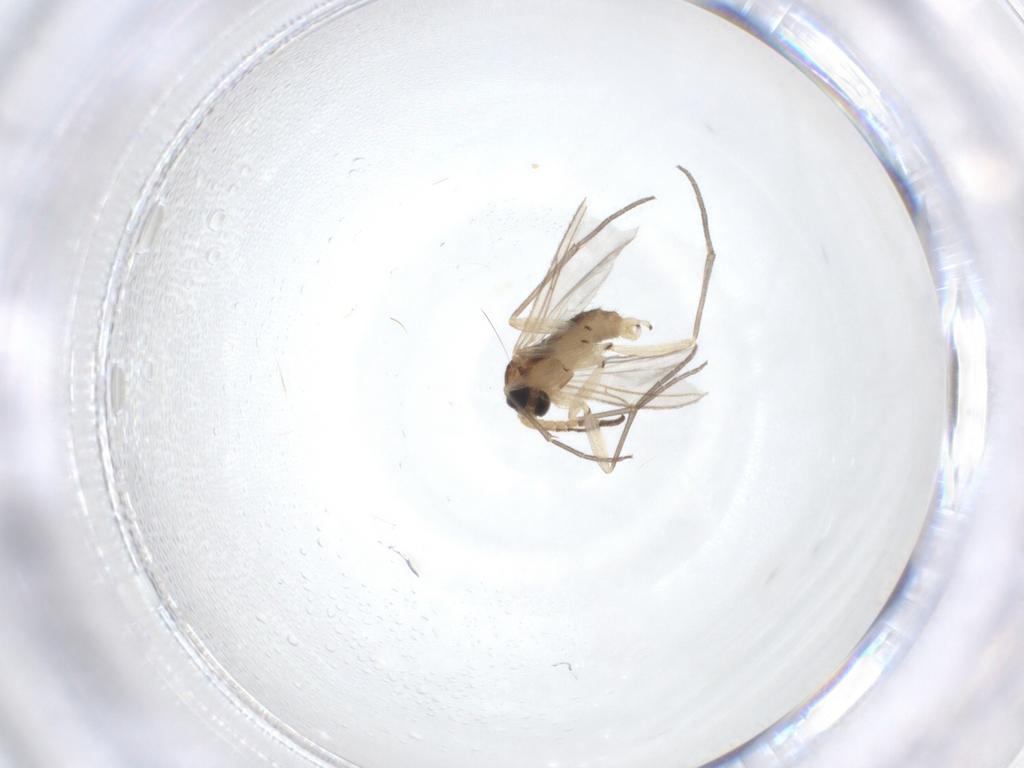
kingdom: Animalia
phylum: Arthropoda
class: Insecta
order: Diptera
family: Sciaridae
